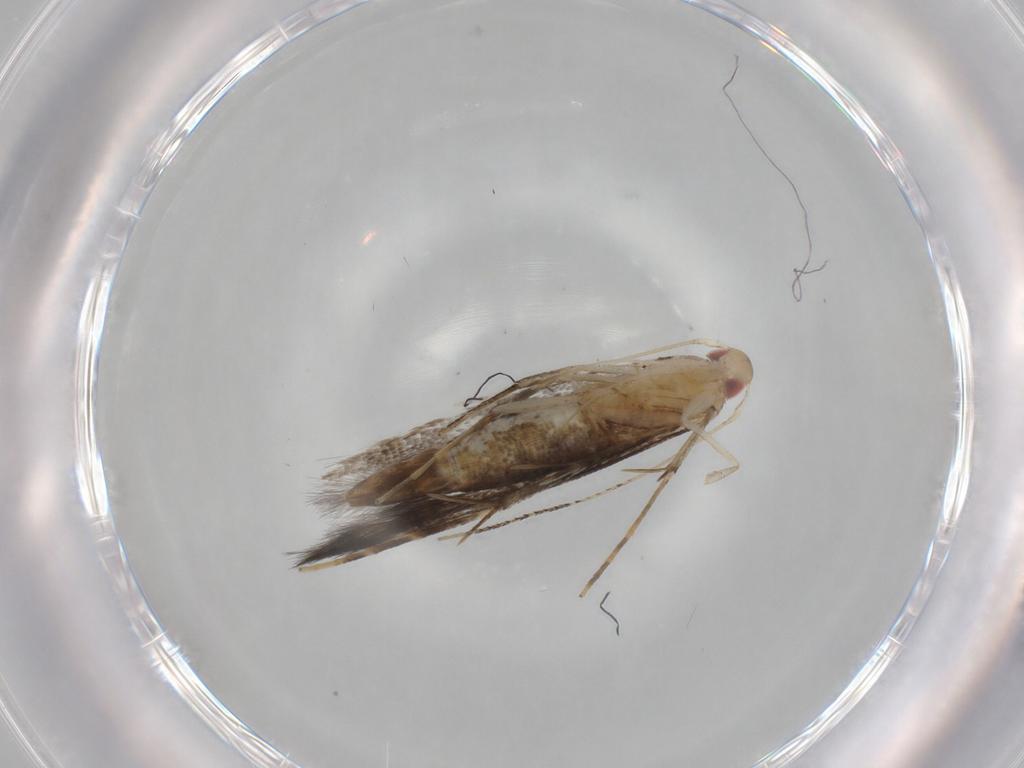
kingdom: Animalia
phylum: Arthropoda
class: Insecta
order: Lepidoptera
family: Cosmopterigidae
